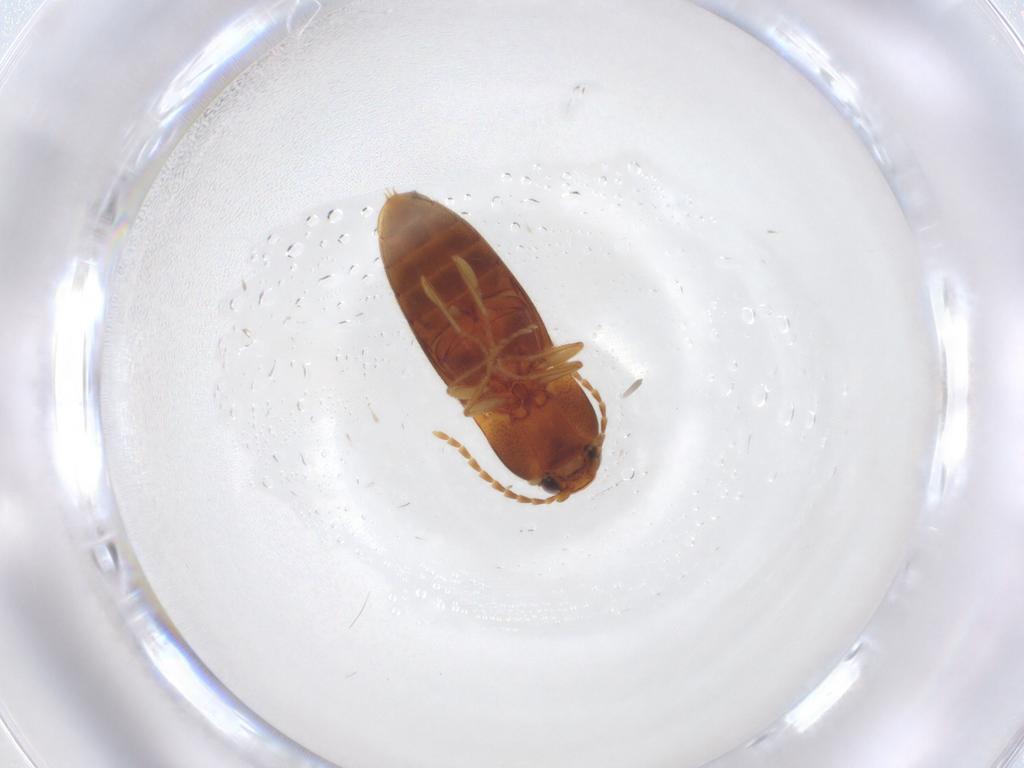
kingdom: Animalia
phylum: Arthropoda
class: Insecta
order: Coleoptera
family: Elateridae
